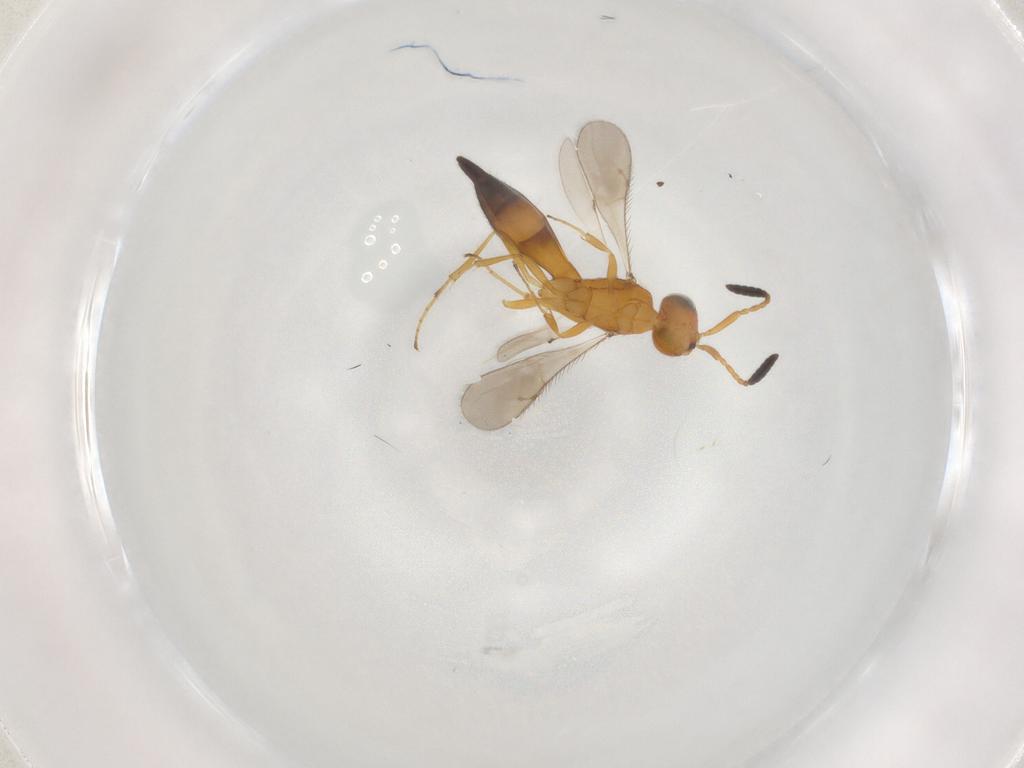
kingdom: Animalia
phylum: Arthropoda
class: Insecta
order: Hymenoptera
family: Scelionidae
